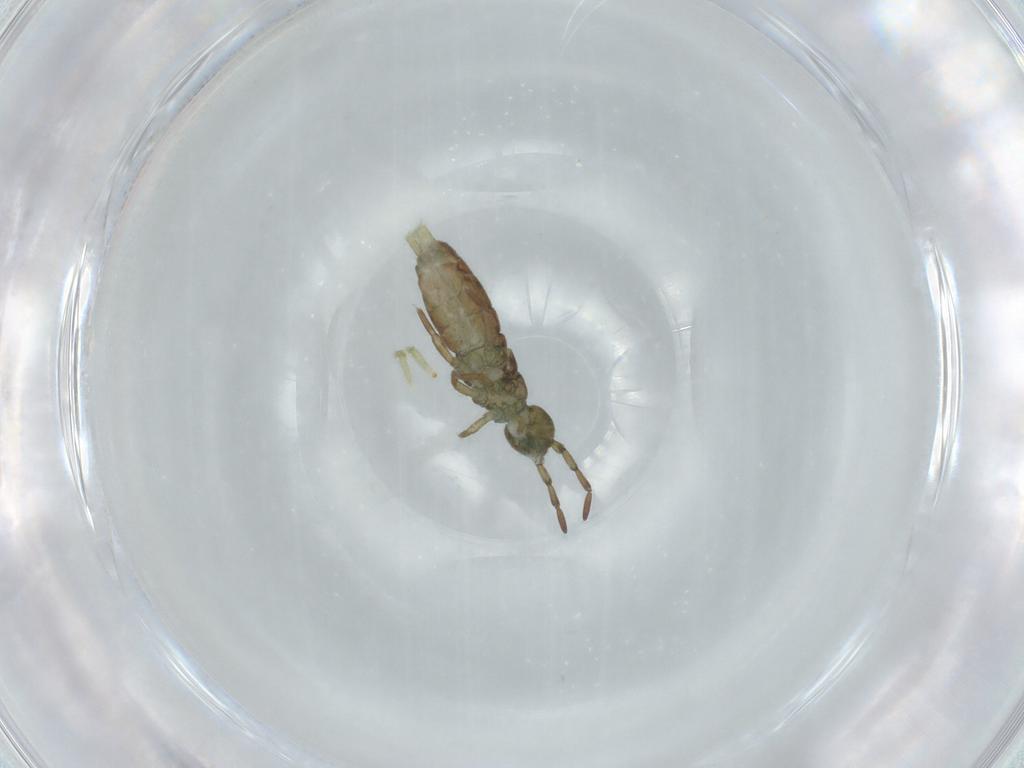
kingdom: Animalia
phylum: Arthropoda
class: Collembola
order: Entomobryomorpha
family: Isotomidae
